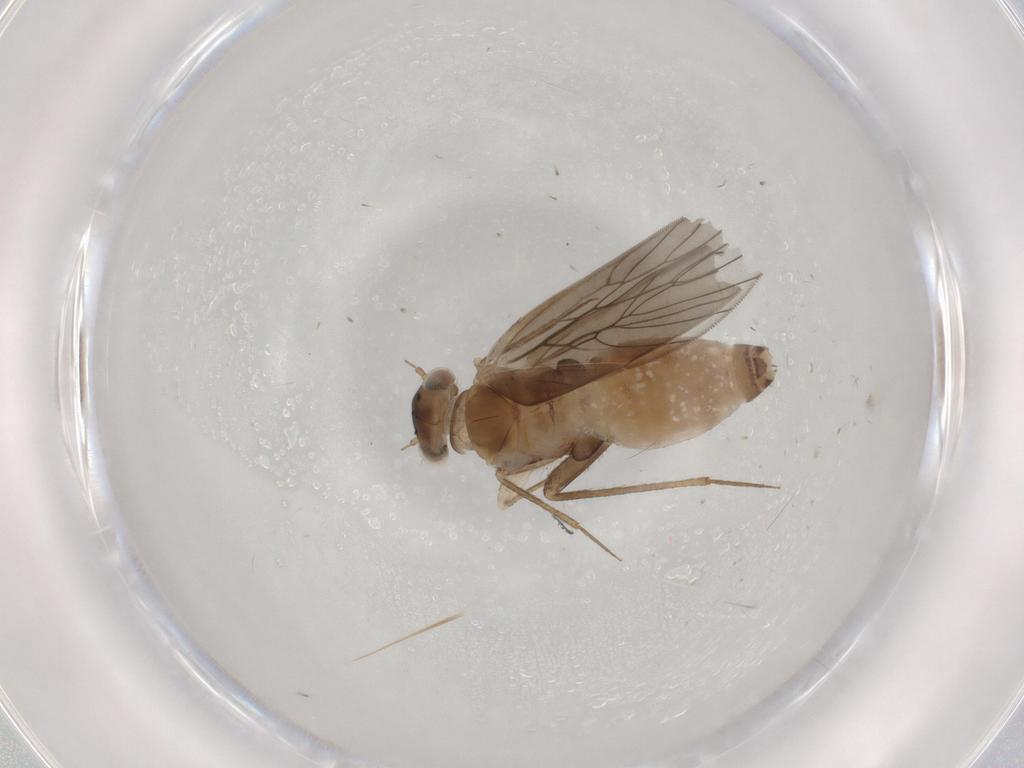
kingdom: Animalia
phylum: Arthropoda
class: Insecta
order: Psocodea
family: Lepidopsocidae
